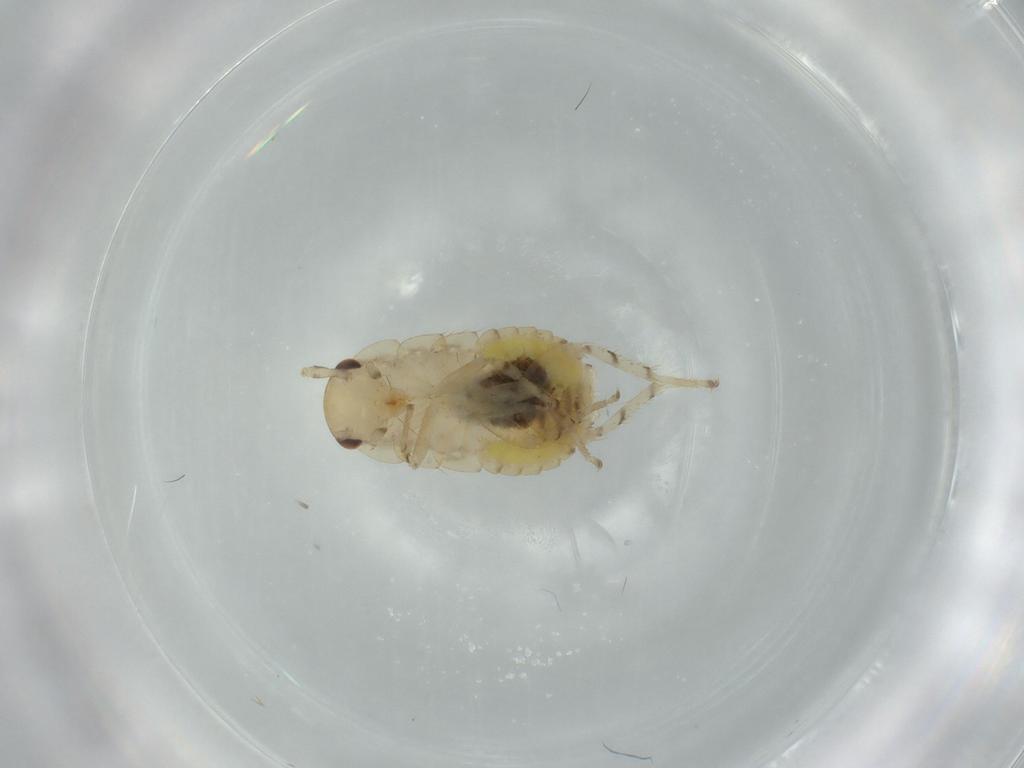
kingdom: Animalia
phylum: Arthropoda
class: Insecta
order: Blattodea
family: Ectobiidae
